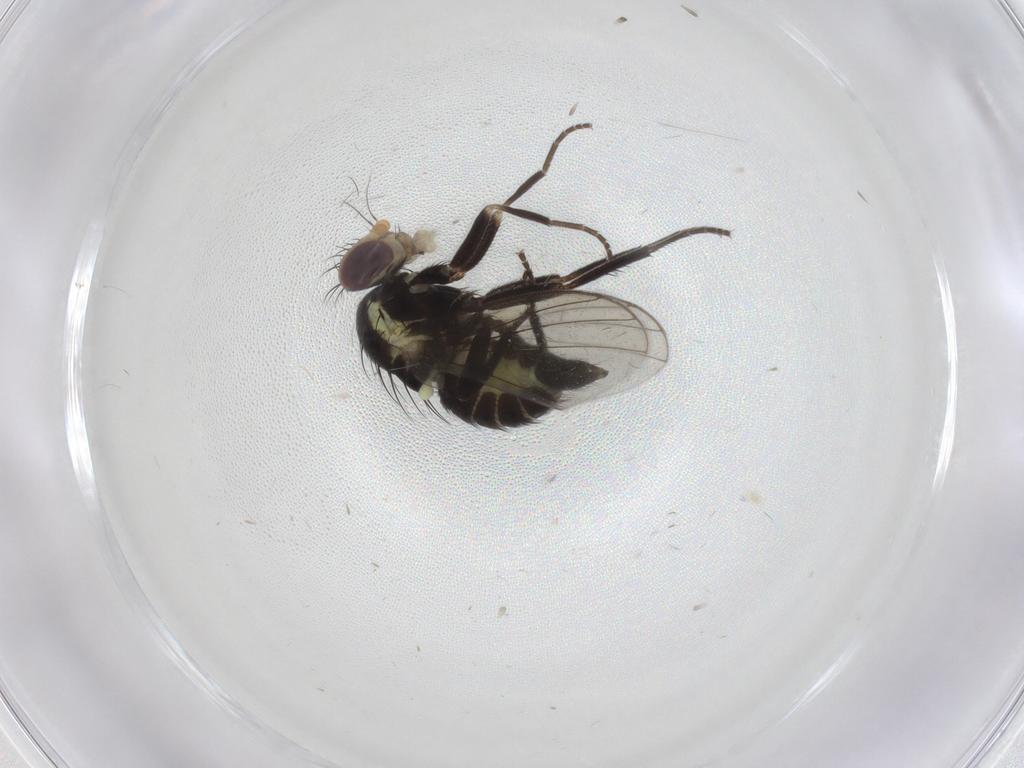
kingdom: Animalia
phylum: Arthropoda
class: Insecta
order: Diptera
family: Agromyzidae
